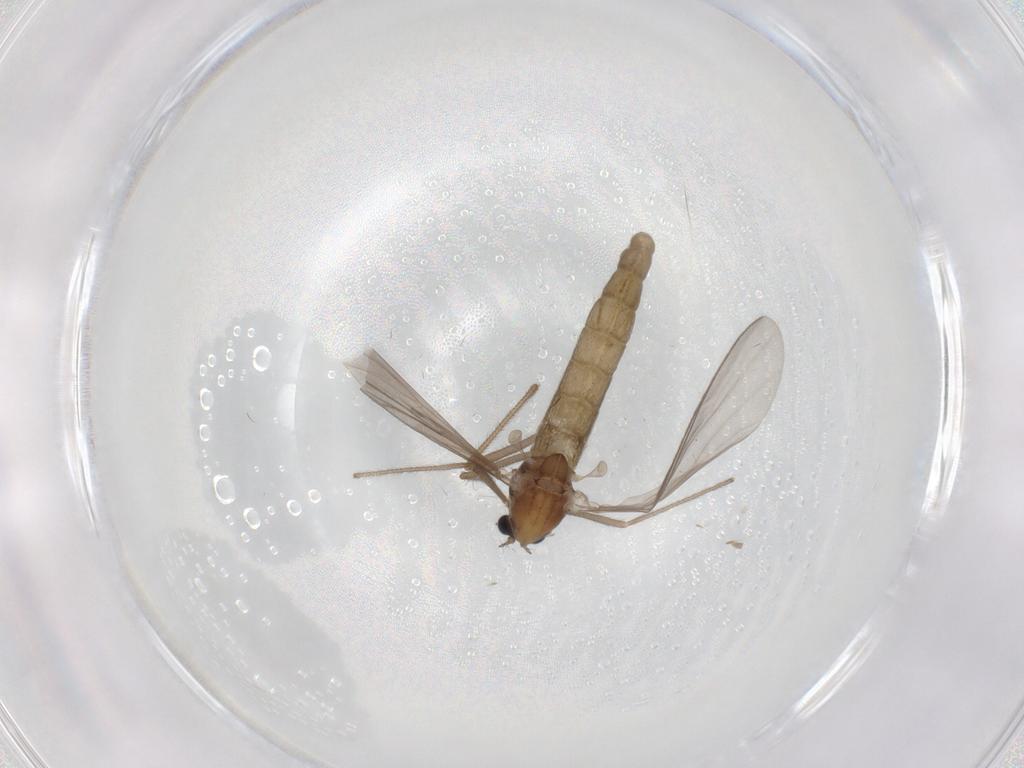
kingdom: Animalia
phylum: Arthropoda
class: Insecta
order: Diptera
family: Chironomidae
